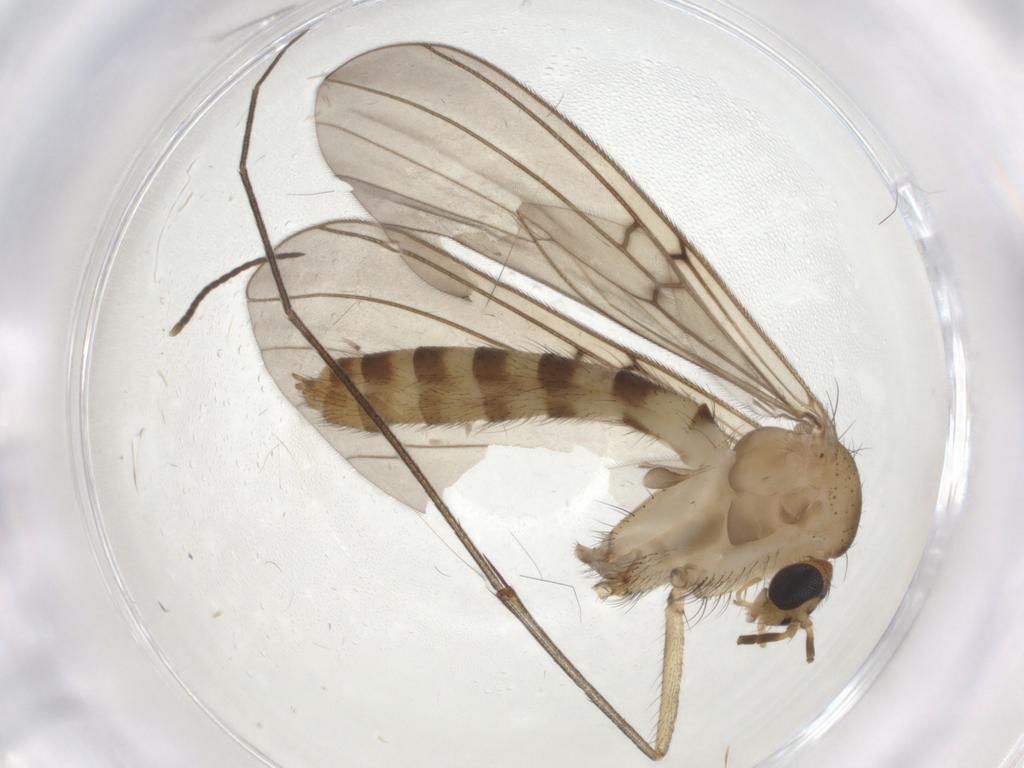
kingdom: Animalia
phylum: Arthropoda
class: Insecta
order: Diptera
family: Mycetophilidae
